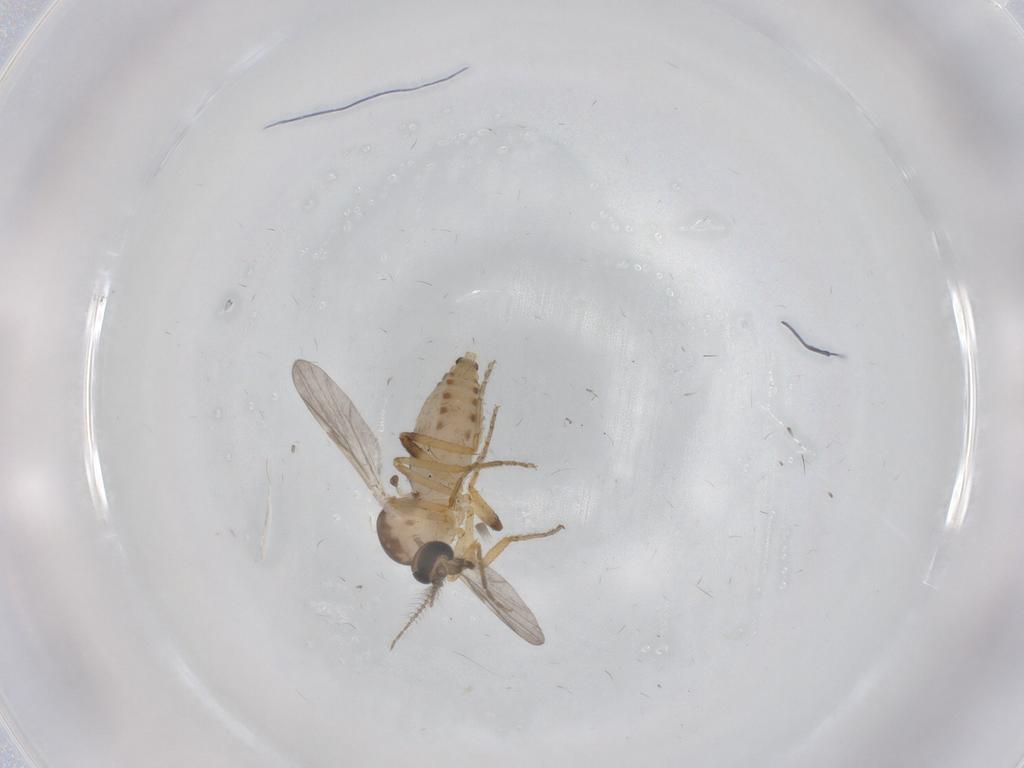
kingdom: Animalia
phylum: Arthropoda
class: Insecta
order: Diptera
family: Ceratopogonidae
